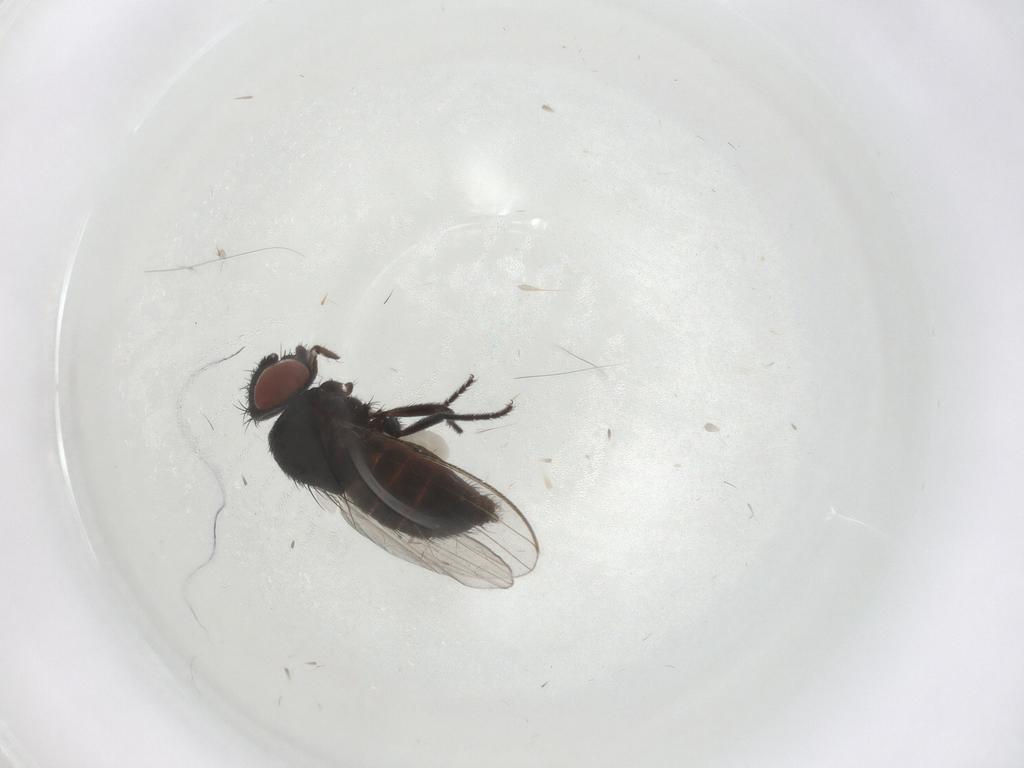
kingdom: Animalia
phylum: Arthropoda
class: Insecta
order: Diptera
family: Milichiidae
